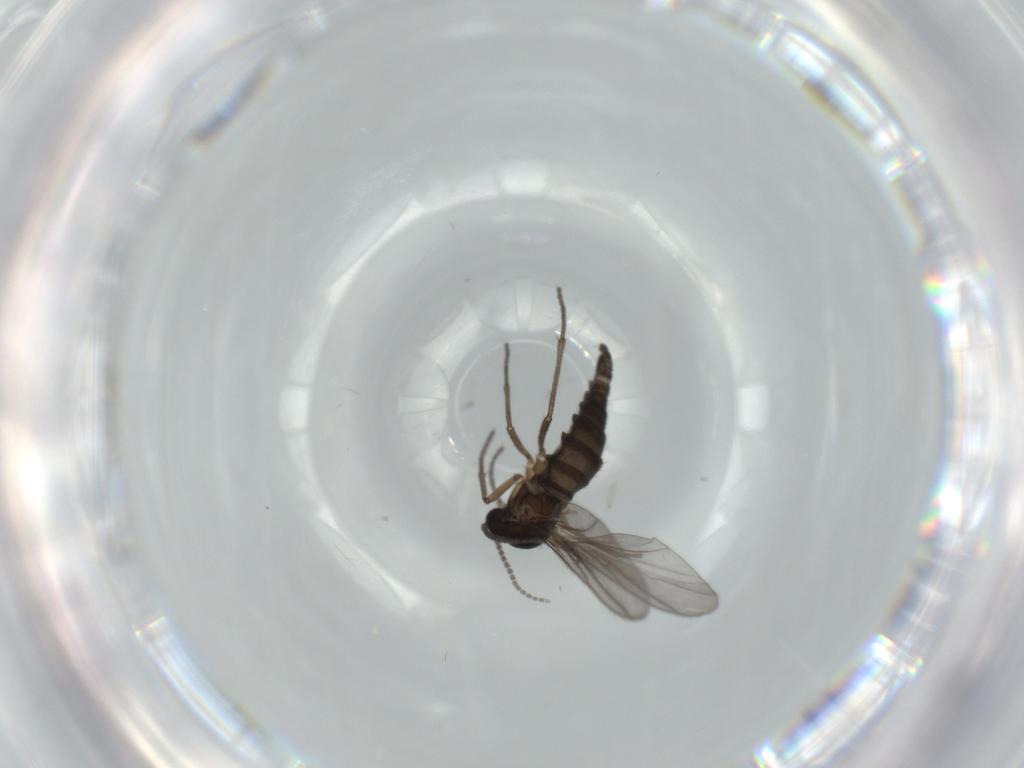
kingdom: Animalia
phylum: Arthropoda
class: Insecta
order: Diptera
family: Sciaridae
